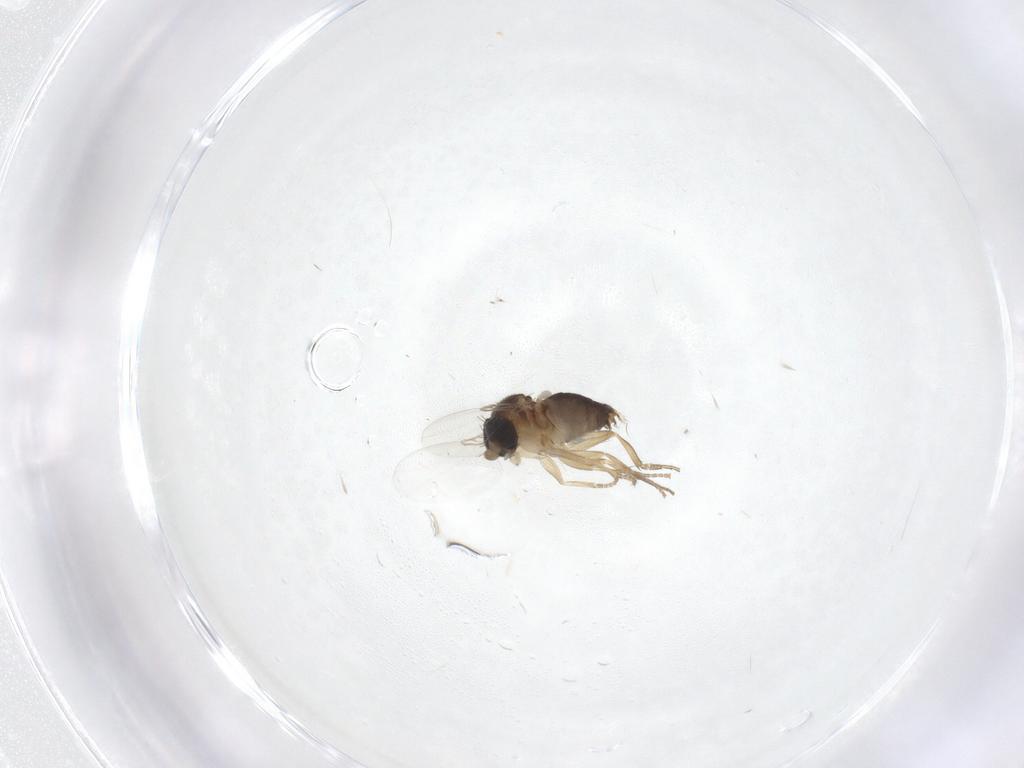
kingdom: Animalia
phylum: Arthropoda
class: Insecta
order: Diptera
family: Phoridae
